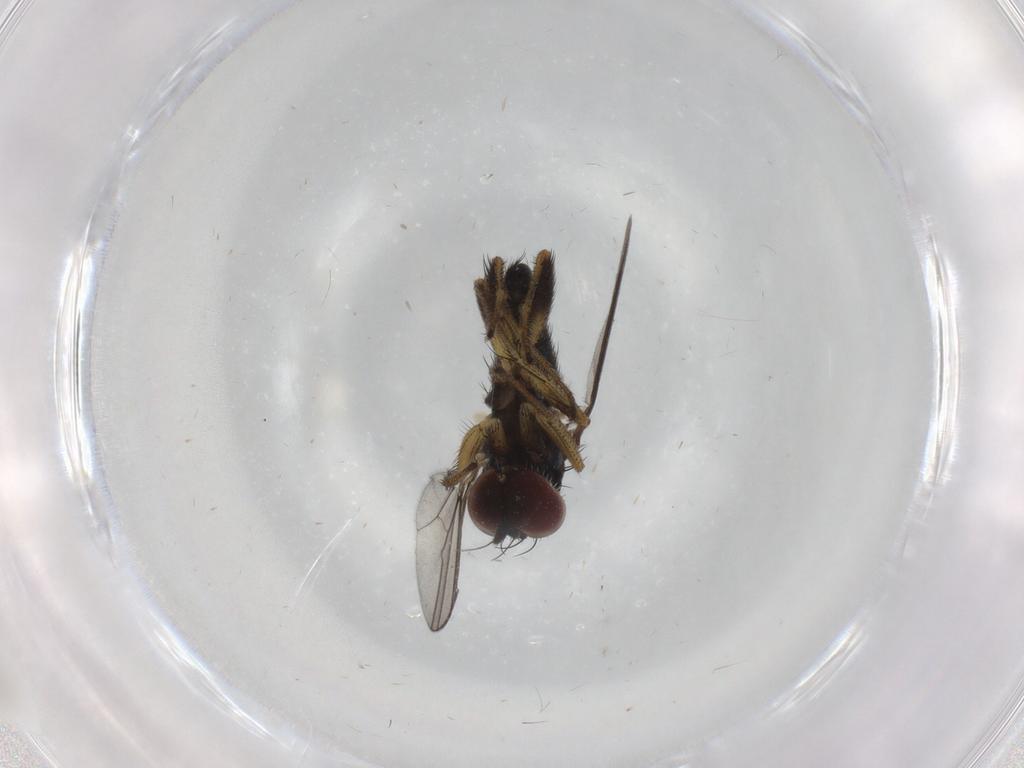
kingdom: Animalia
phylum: Arthropoda
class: Insecta
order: Diptera
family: Dolichopodidae
